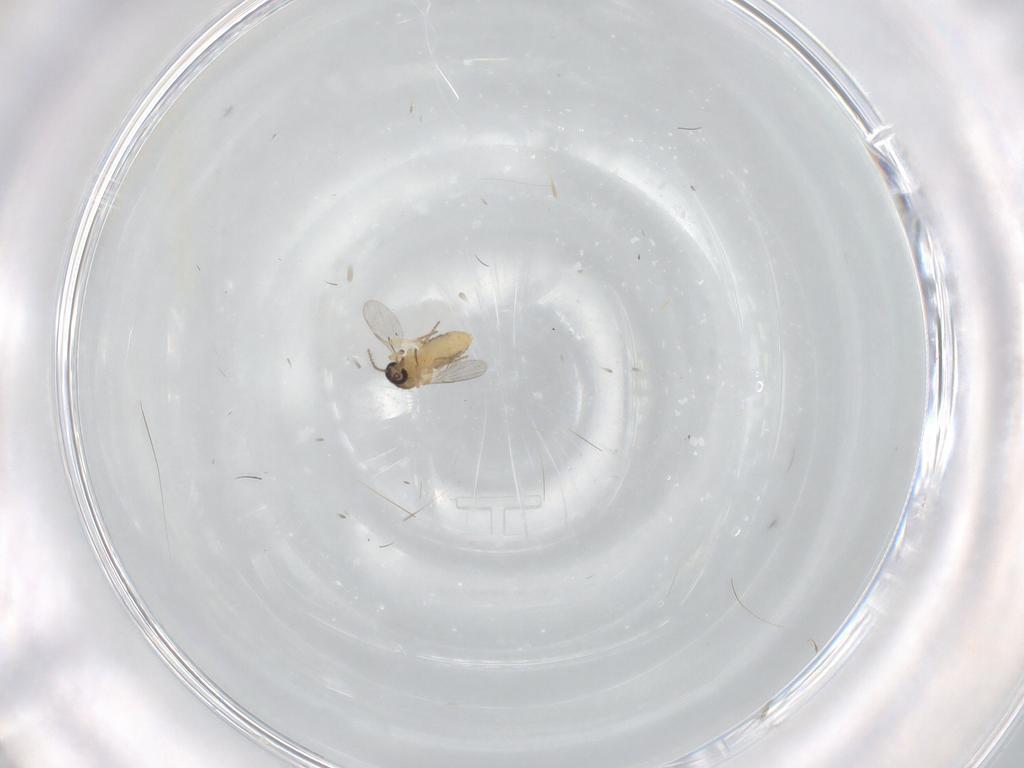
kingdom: Animalia
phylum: Arthropoda
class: Insecta
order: Diptera
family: Ceratopogonidae
